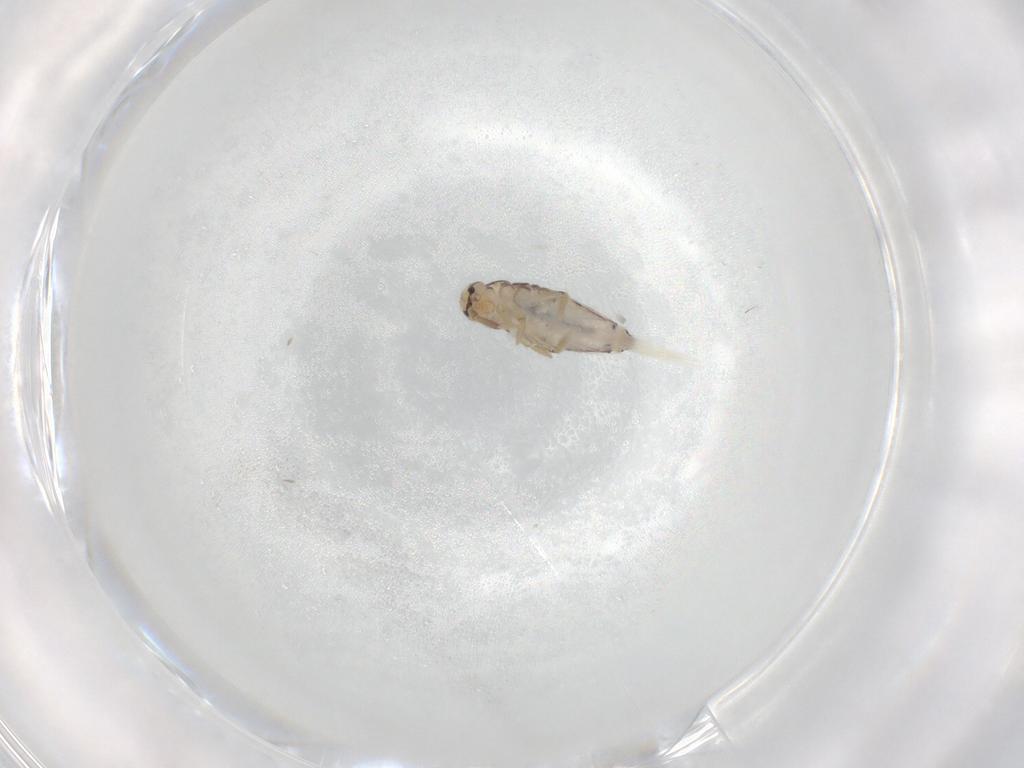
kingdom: Animalia
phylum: Arthropoda
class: Collembola
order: Entomobryomorpha
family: Entomobryidae
